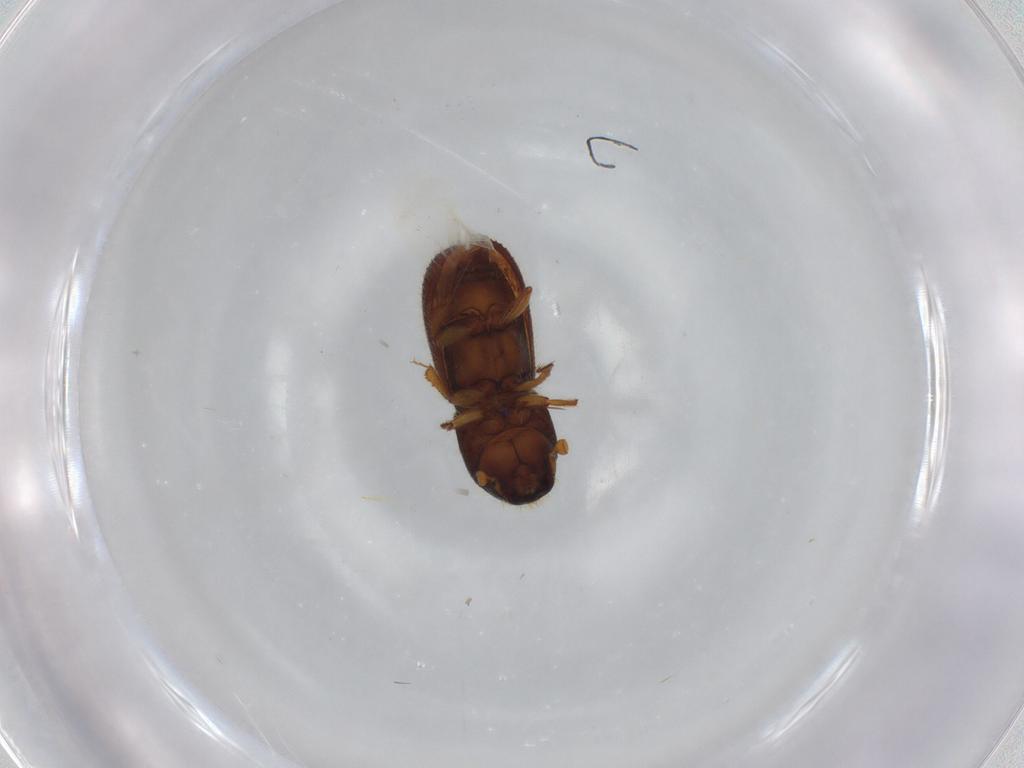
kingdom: Animalia
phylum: Arthropoda
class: Insecta
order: Coleoptera
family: Curculionidae
